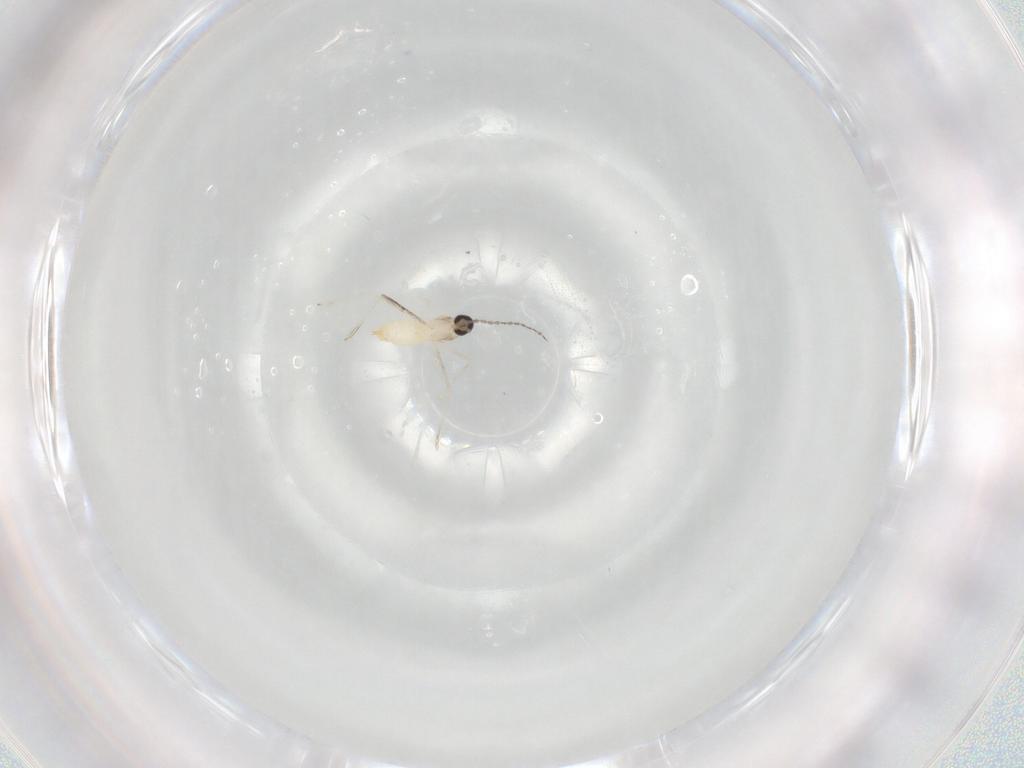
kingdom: Animalia
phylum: Arthropoda
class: Insecta
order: Diptera
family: Cecidomyiidae
